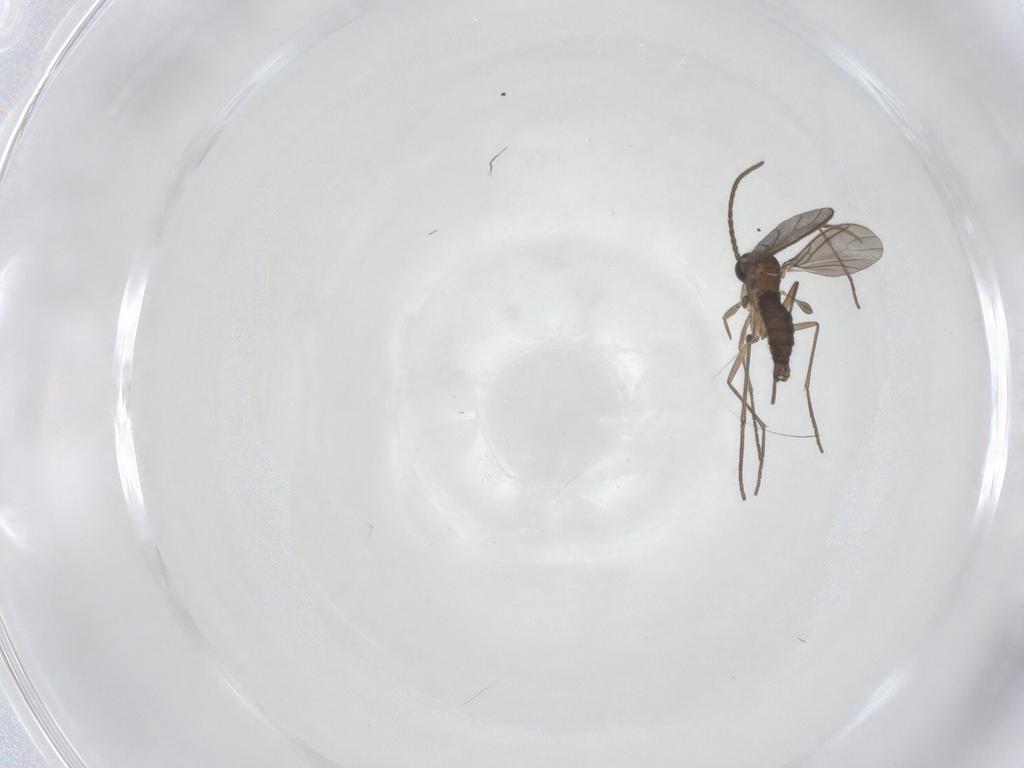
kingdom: Animalia
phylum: Arthropoda
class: Insecta
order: Diptera
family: Sciaridae
